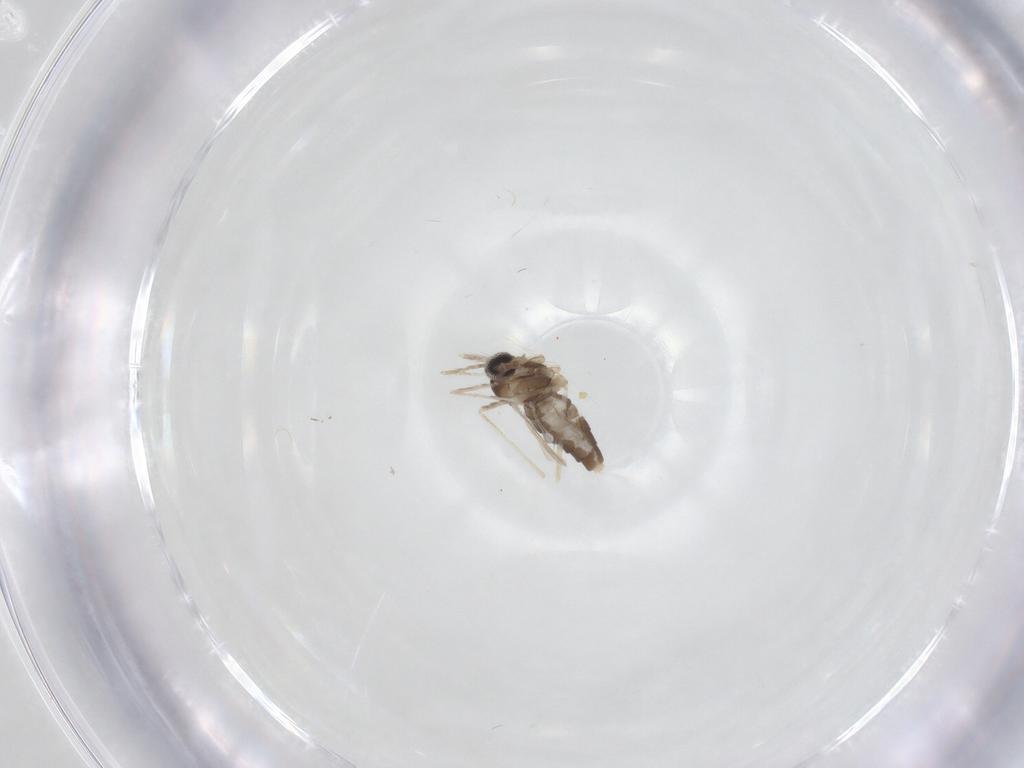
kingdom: Animalia
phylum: Arthropoda
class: Insecta
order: Diptera
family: Cecidomyiidae
